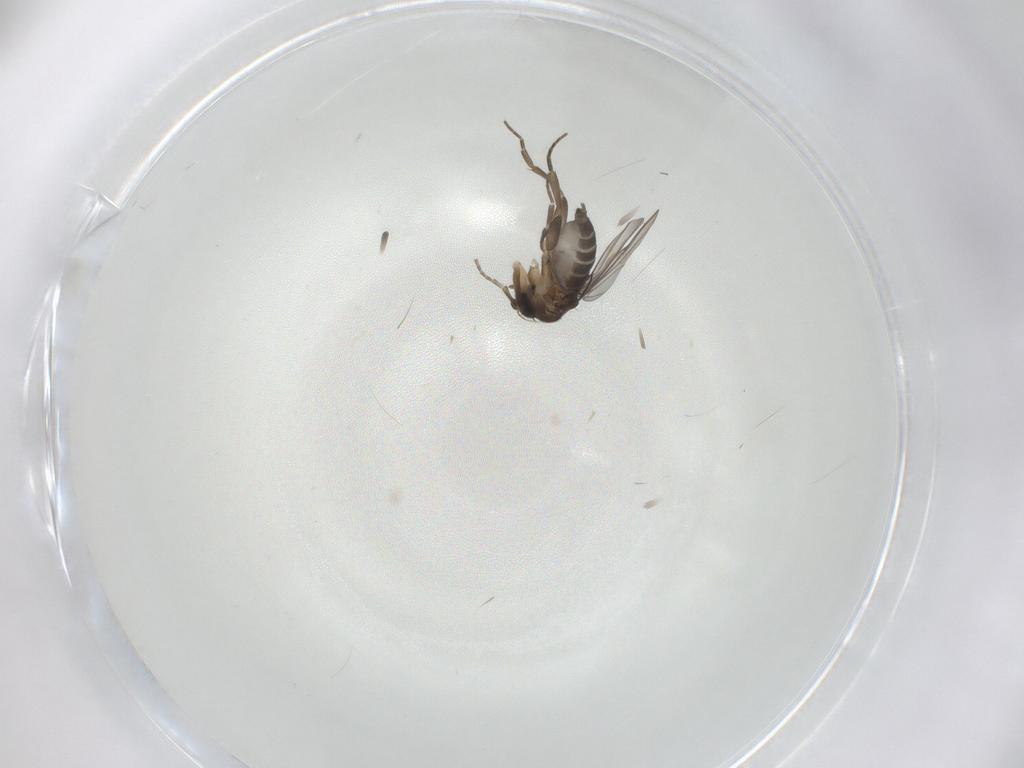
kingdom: Animalia
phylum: Arthropoda
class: Insecta
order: Diptera
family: Phoridae
